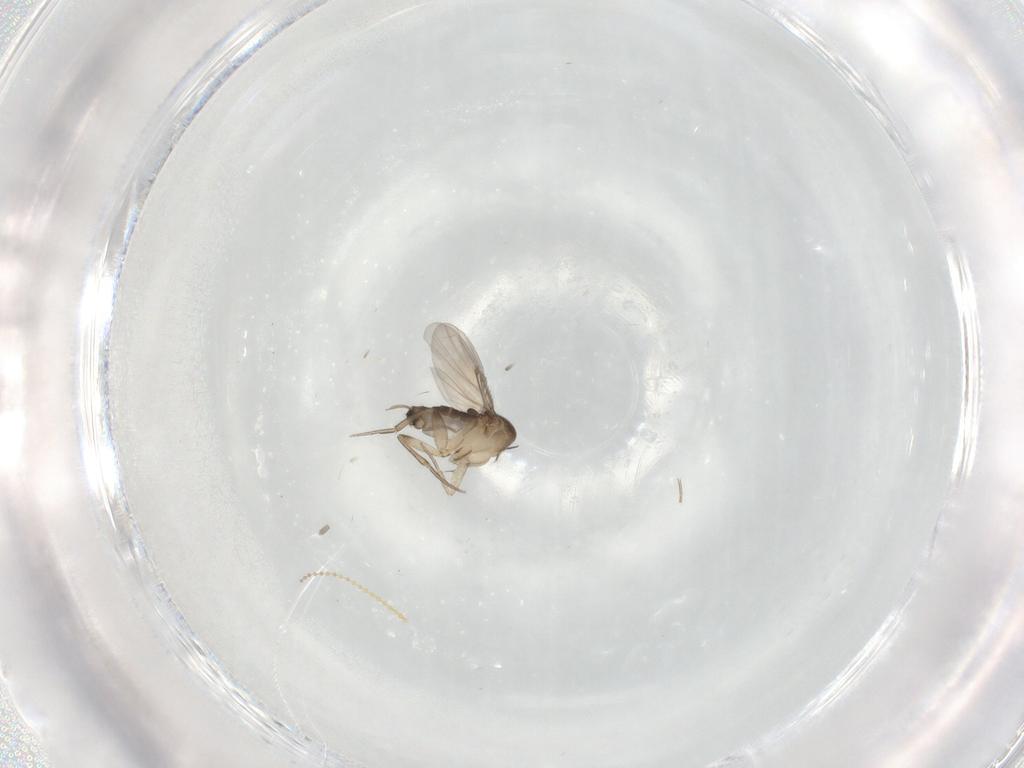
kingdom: Animalia
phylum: Arthropoda
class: Insecta
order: Diptera
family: Phoridae
